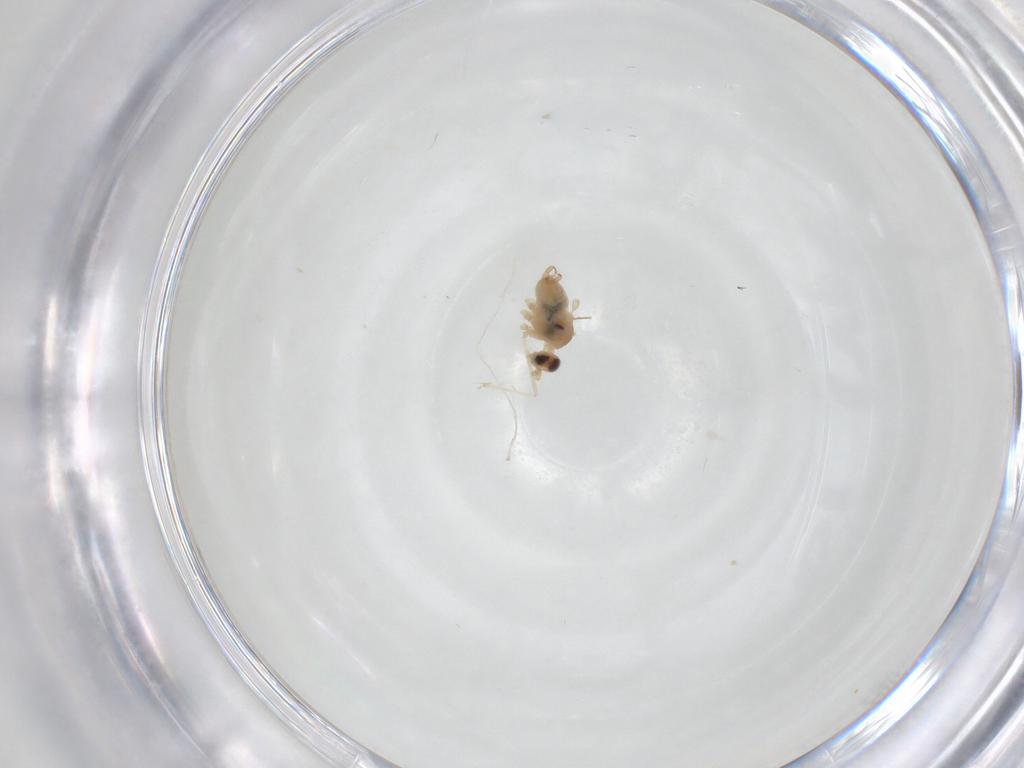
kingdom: Animalia
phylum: Arthropoda
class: Insecta
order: Diptera
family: Cecidomyiidae
